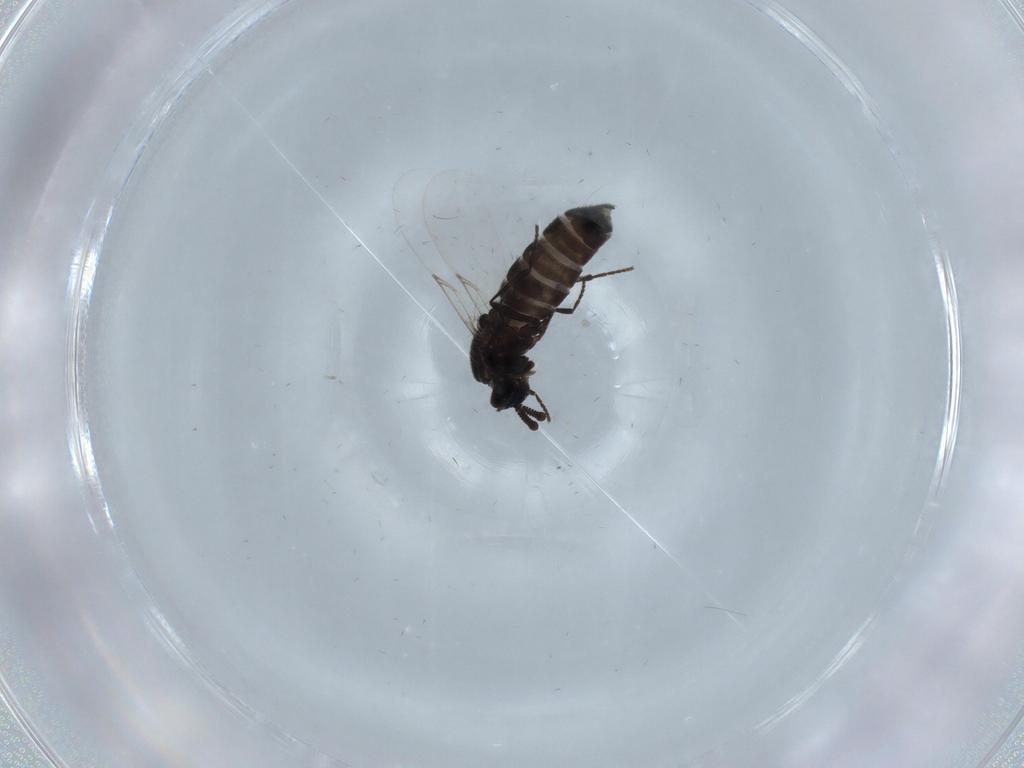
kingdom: Animalia
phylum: Arthropoda
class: Insecta
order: Diptera
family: Scatopsidae
